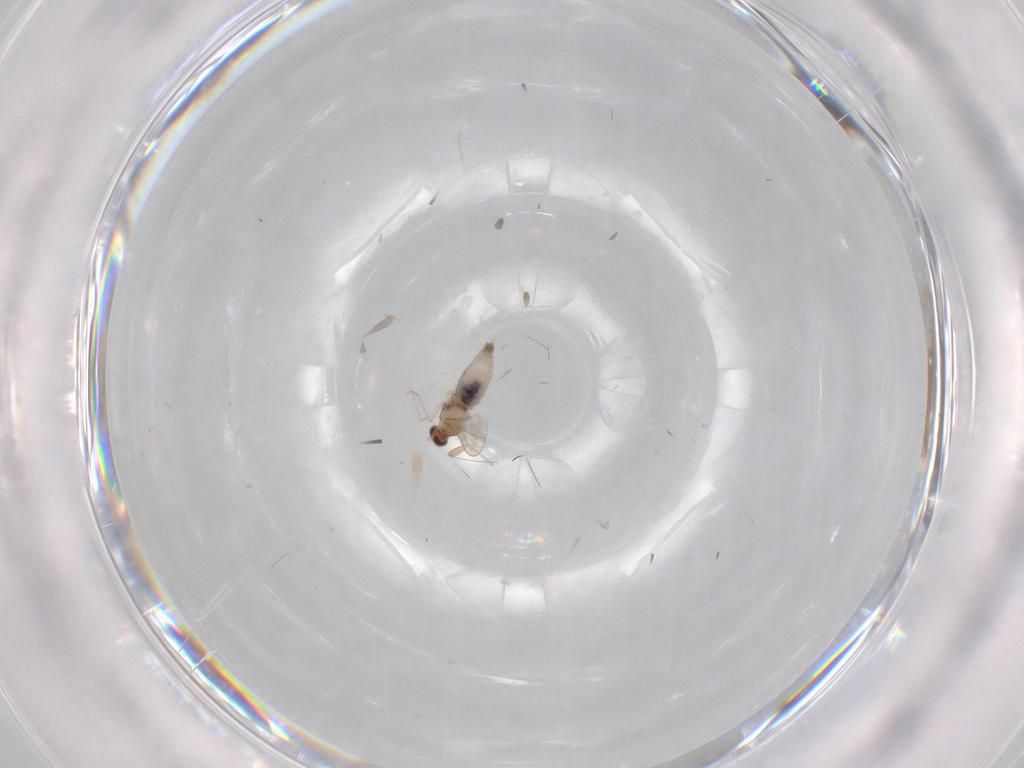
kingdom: Animalia
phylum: Arthropoda
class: Insecta
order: Diptera
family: Cecidomyiidae
